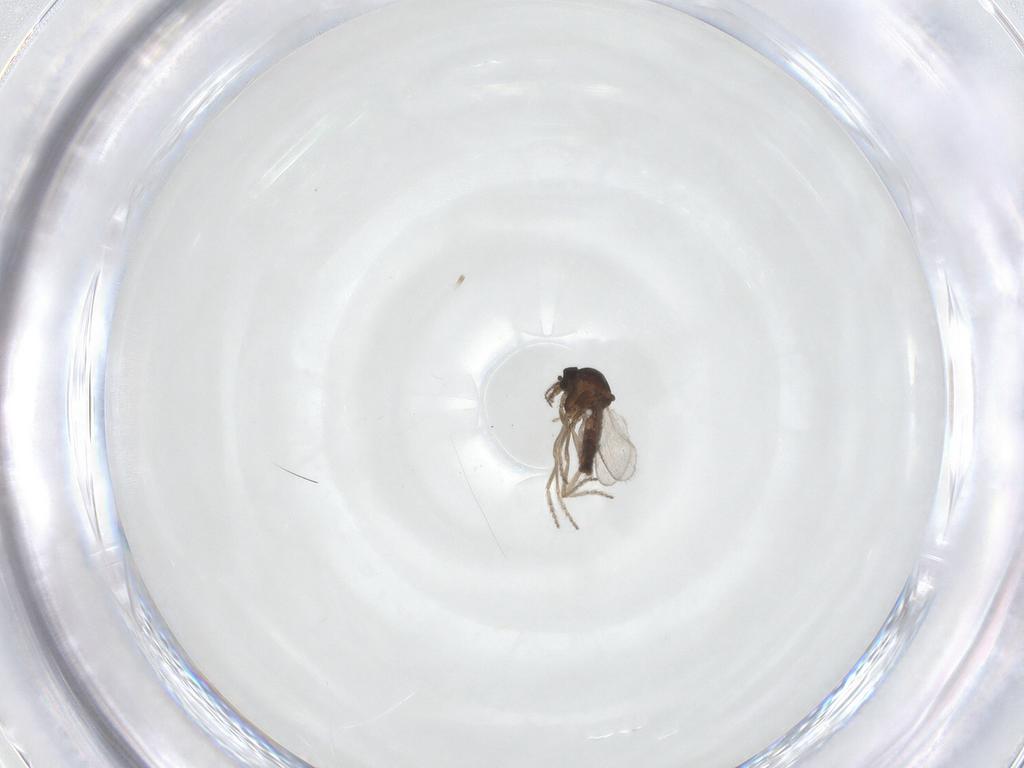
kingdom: Animalia
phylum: Arthropoda
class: Insecta
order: Diptera
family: Ceratopogonidae
